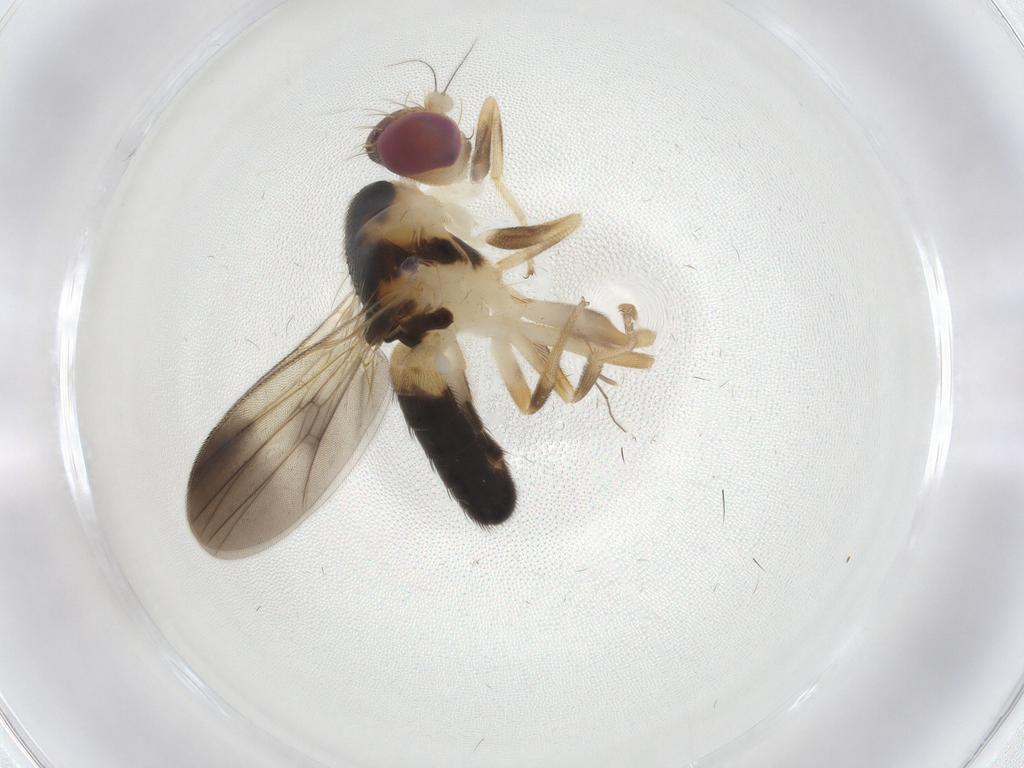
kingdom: Animalia
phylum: Arthropoda
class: Insecta
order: Diptera
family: Clusiidae
